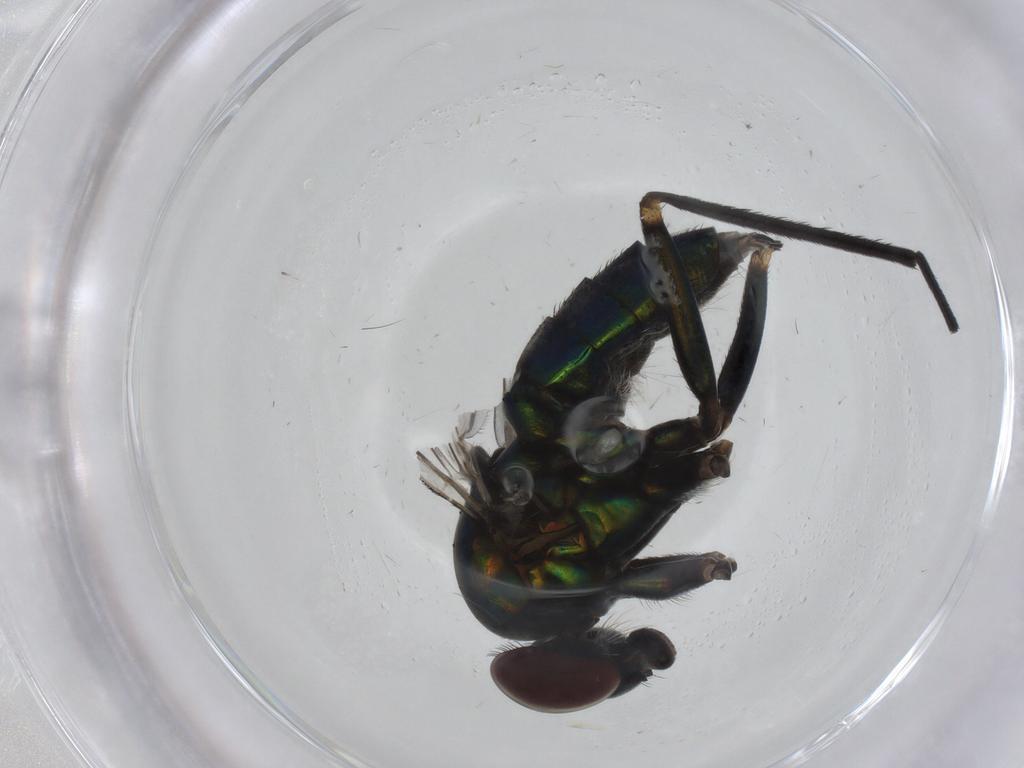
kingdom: Animalia
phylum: Arthropoda
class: Insecta
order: Diptera
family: Dolichopodidae
